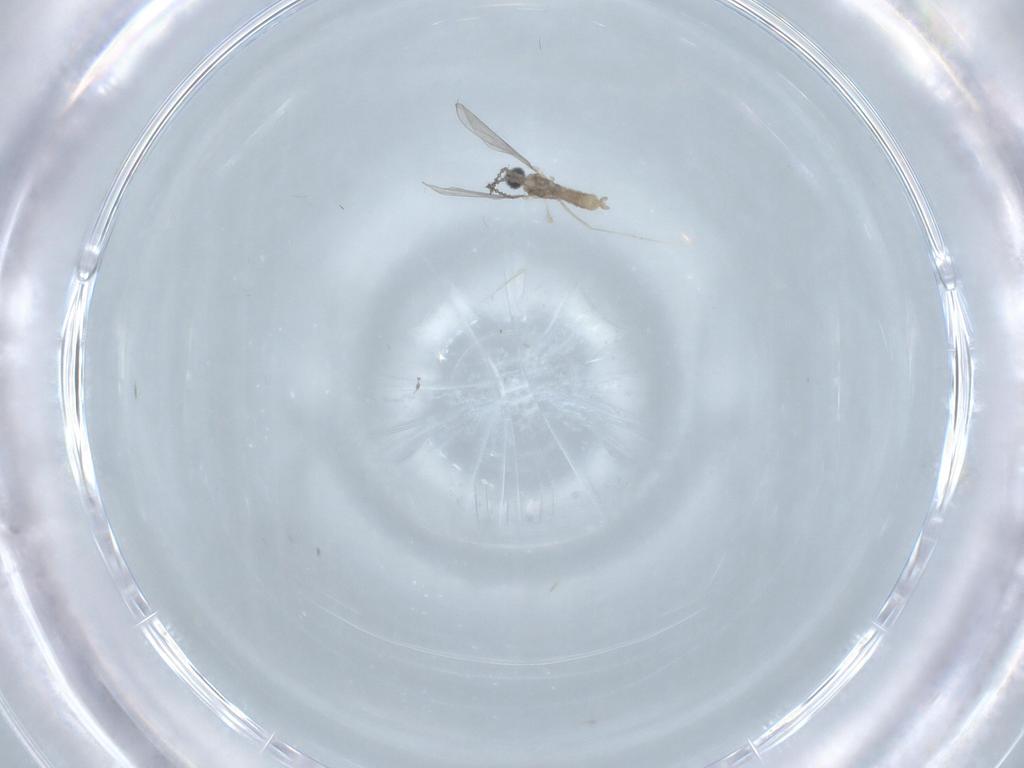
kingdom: Animalia
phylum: Arthropoda
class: Insecta
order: Diptera
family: Cecidomyiidae
